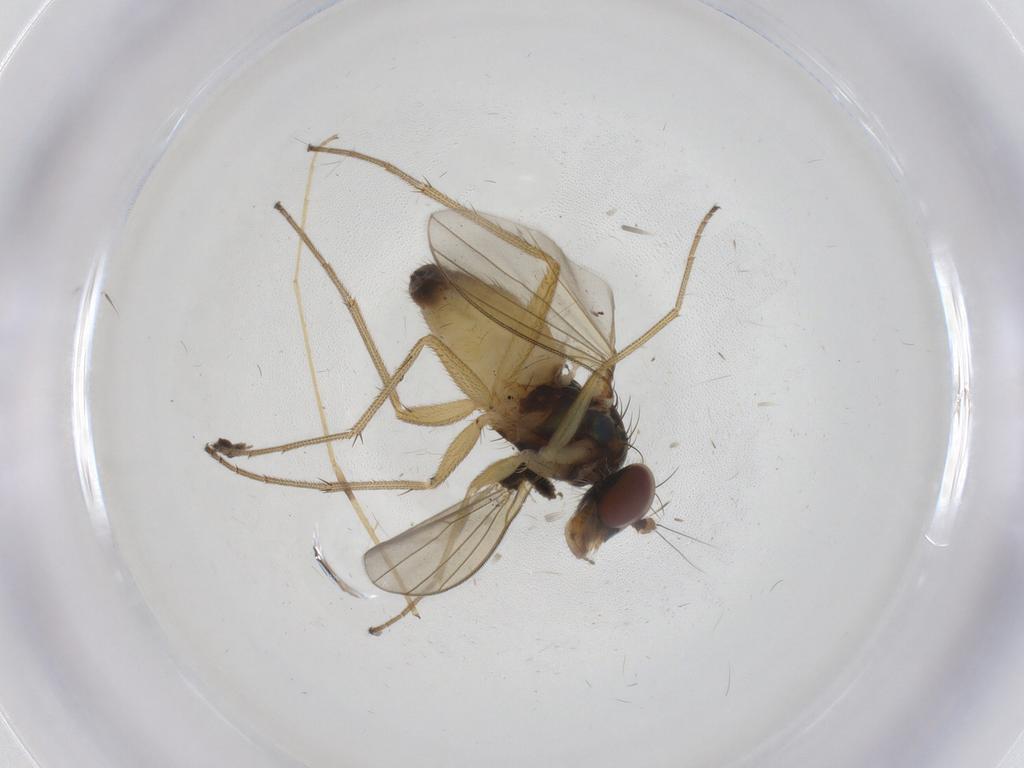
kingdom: Animalia
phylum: Arthropoda
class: Insecta
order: Diptera
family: Dolichopodidae
